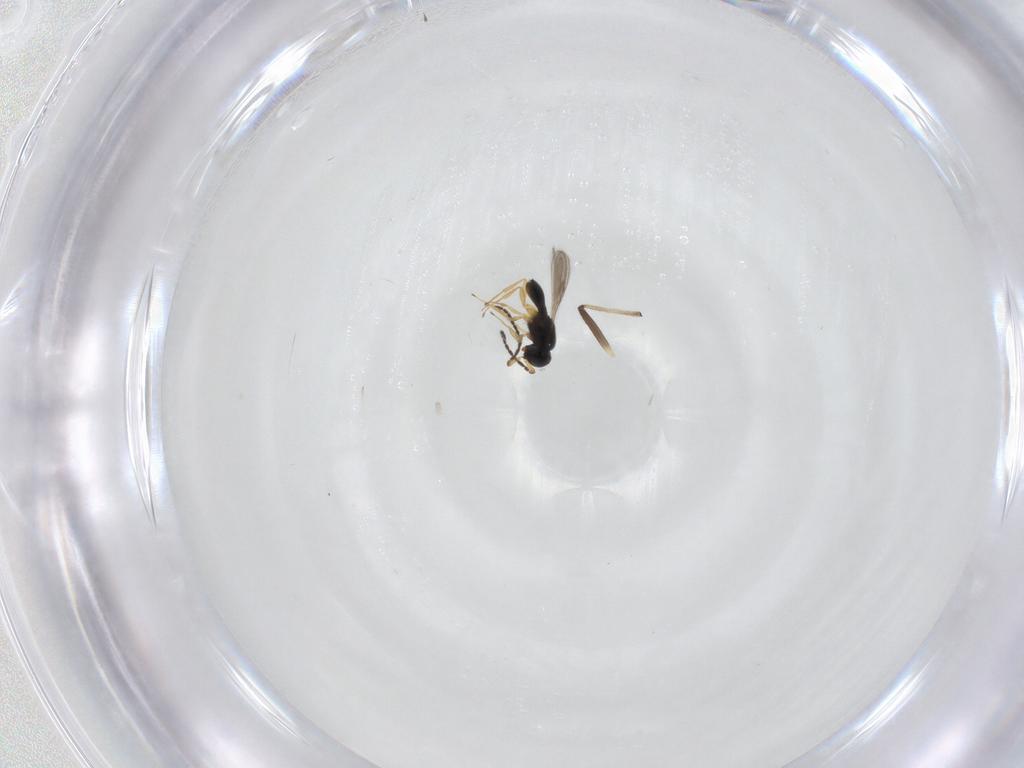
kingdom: Animalia
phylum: Arthropoda
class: Insecta
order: Hymenoptera
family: Scelionidae
